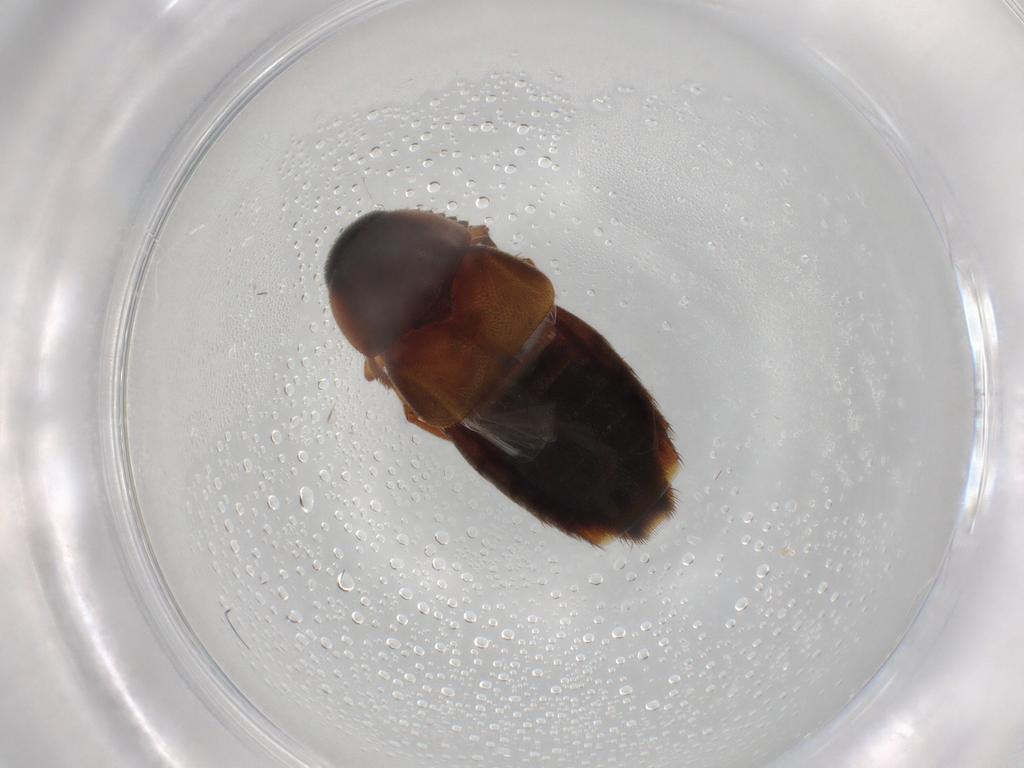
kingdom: Animalia
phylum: Arthropoda
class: Insecta
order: Coleoptera
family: Staphylinidae
